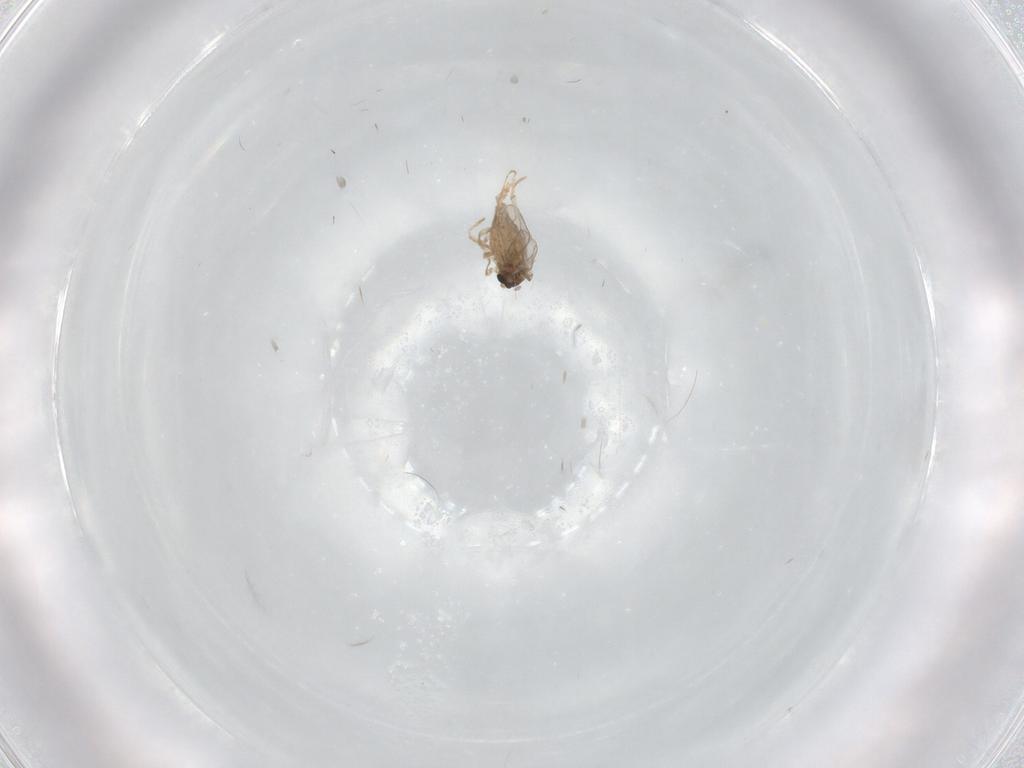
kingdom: Animalia
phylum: Arthropoda
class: Insecta
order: Diptera
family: Cecidomyiidae
